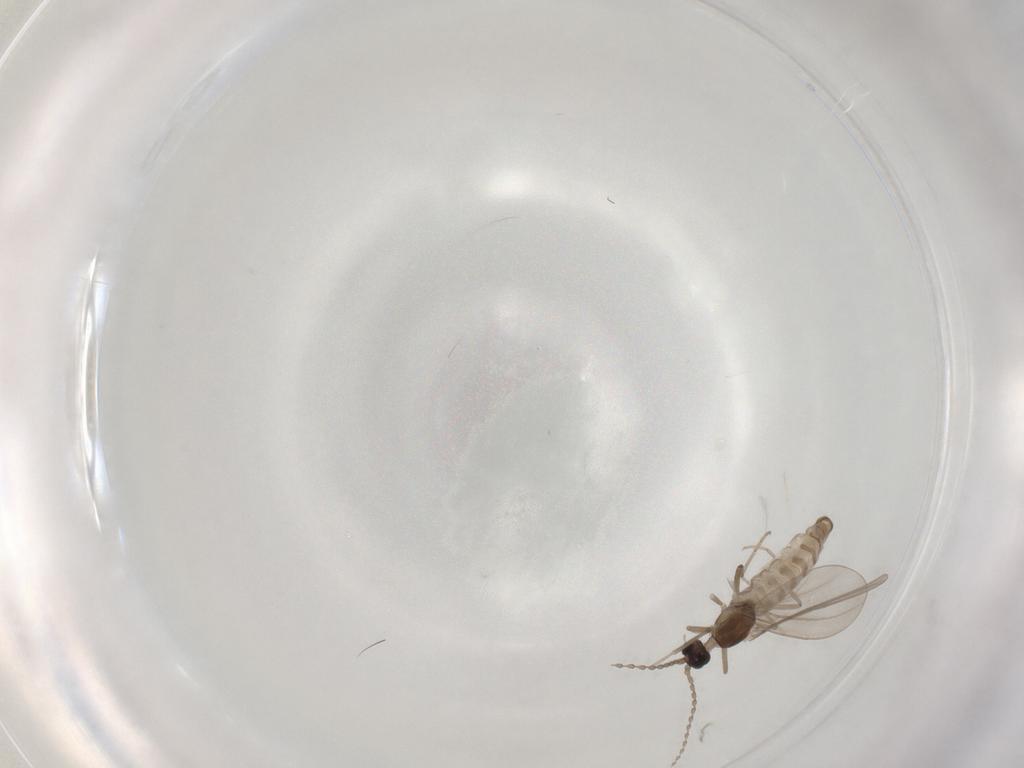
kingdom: Animalia
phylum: Arthropoda
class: Insecta
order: Diptera
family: Cecidomyiidae
